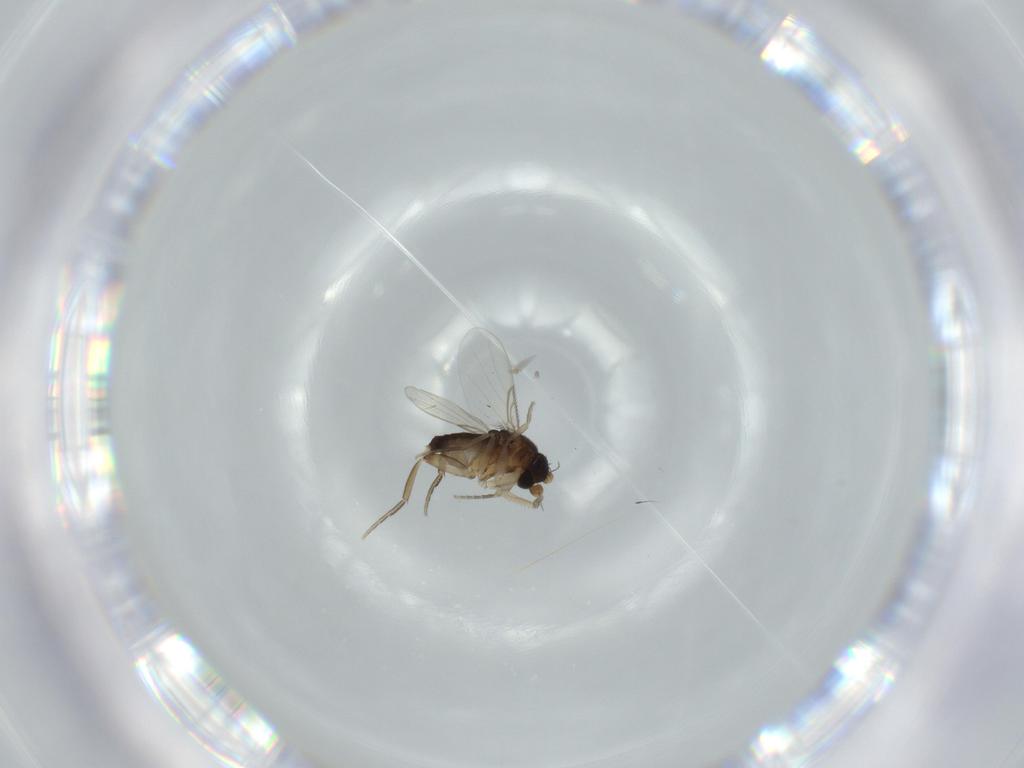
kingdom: Animalia
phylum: Arthropoda
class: Insecta
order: Diptera
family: Phoridae
